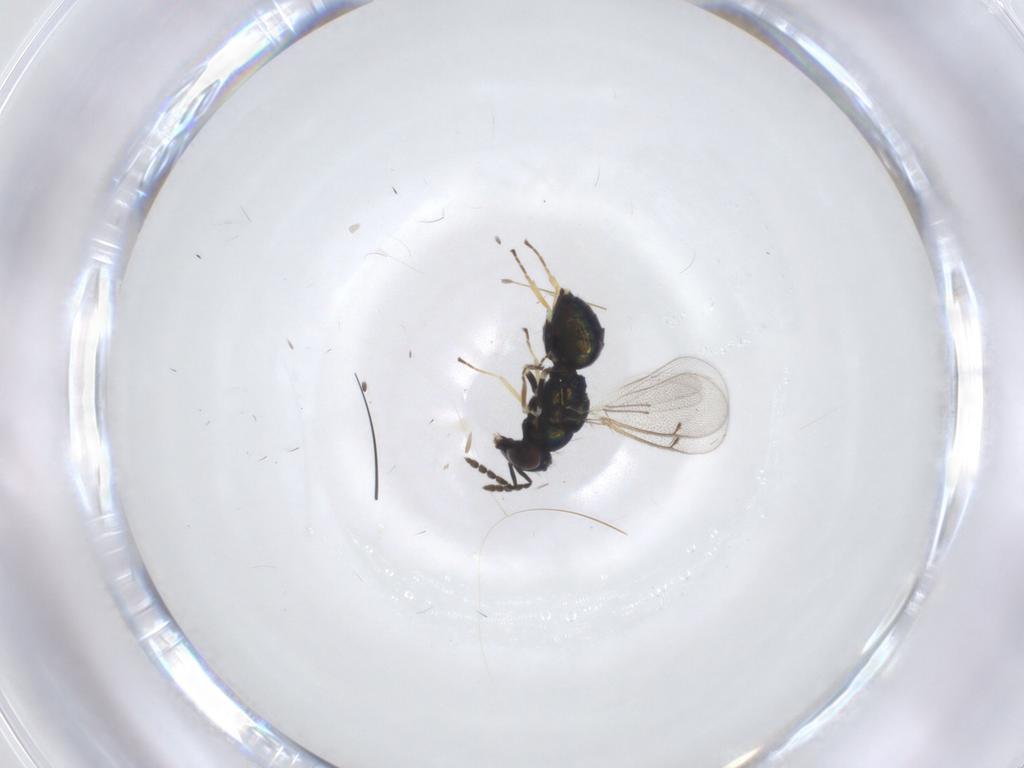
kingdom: Animalia
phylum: Arthropoda
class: Insecta
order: Hymenoptera
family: Eulophidae
